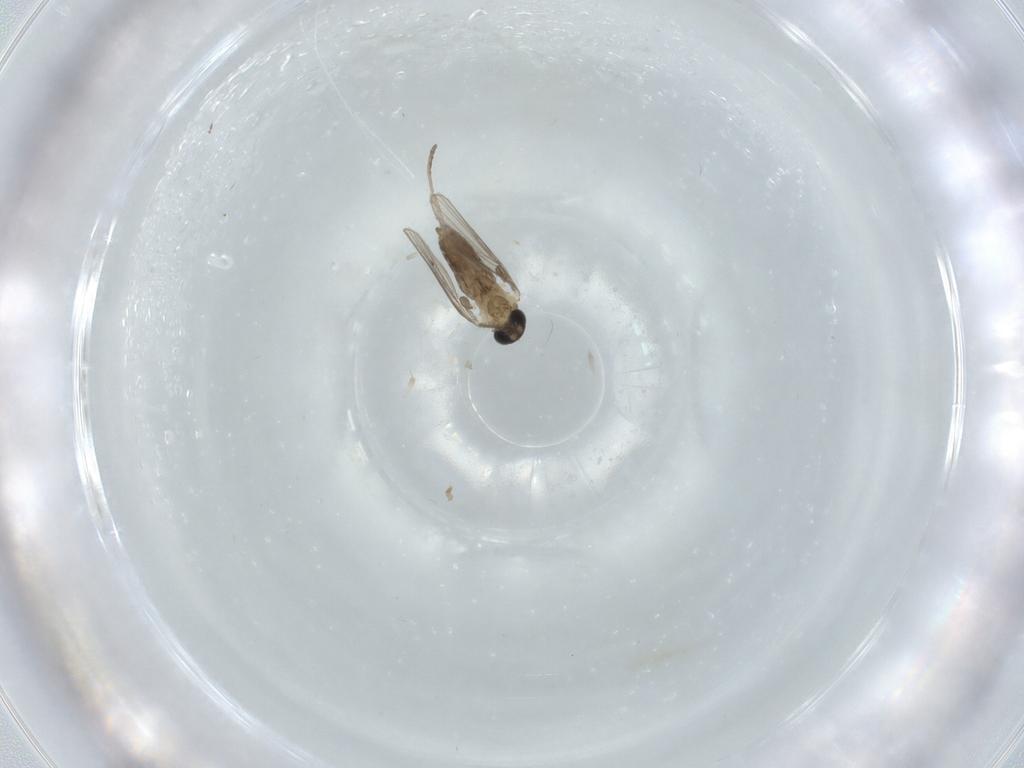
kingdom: Animalia
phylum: Arthropoda
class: Insecta
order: Diptera
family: Psychodidae
